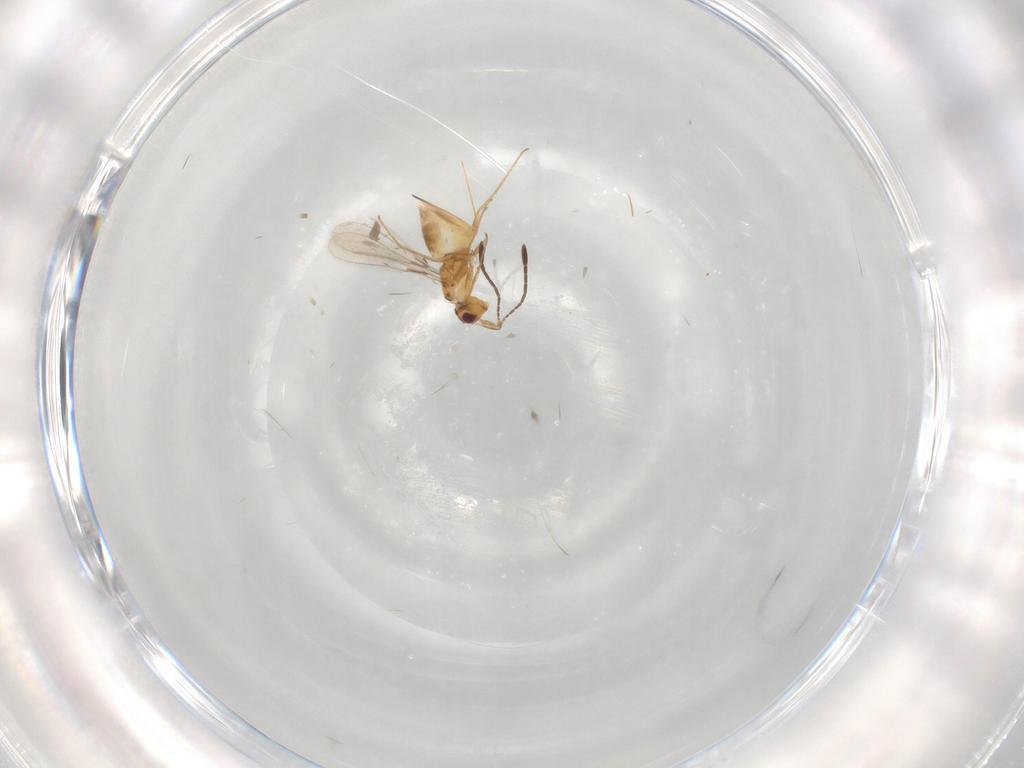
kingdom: Animalia
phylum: Arthropoda
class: Insecta
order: Hymenoptera
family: Mymaridae
